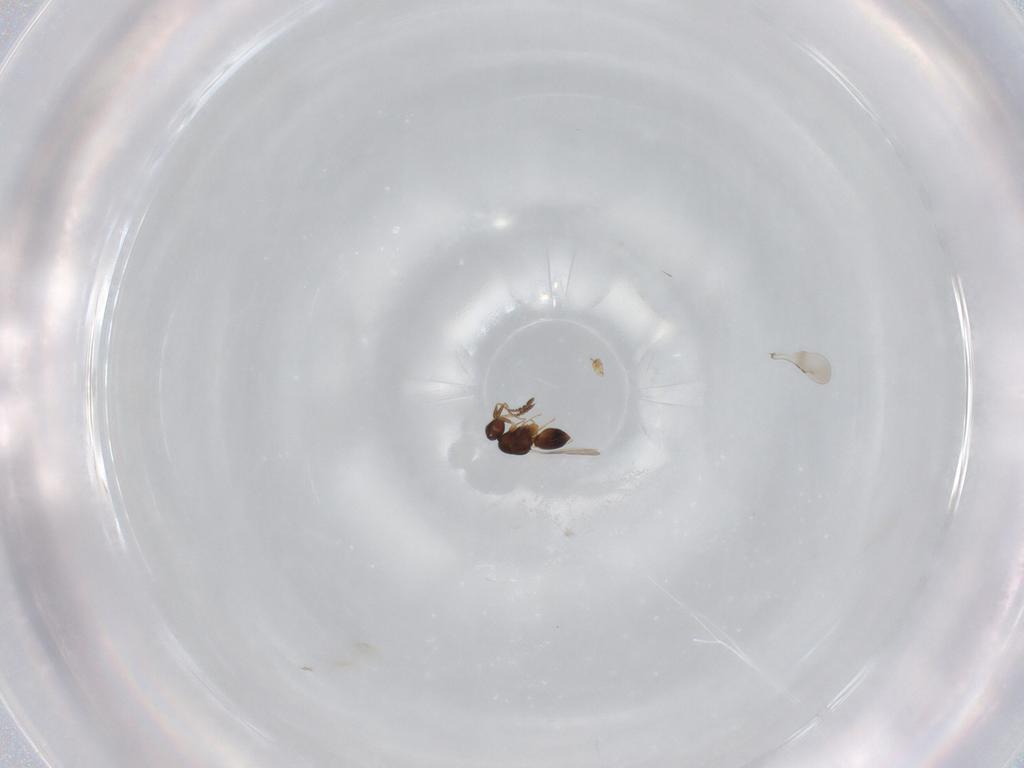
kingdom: Animalia
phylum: Arthropoda
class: Insecta
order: Hymenoptera
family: Ceraphronidae
